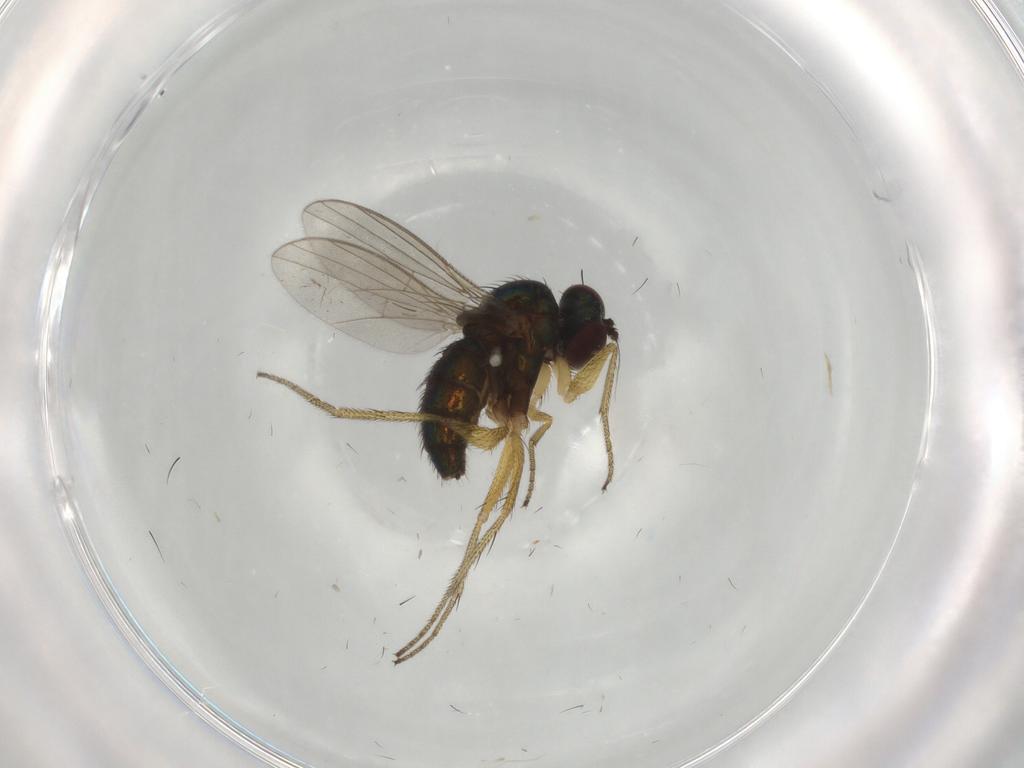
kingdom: Animalia
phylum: Arthropoda
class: Insecta
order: Diptera
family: Dolichopodidae
